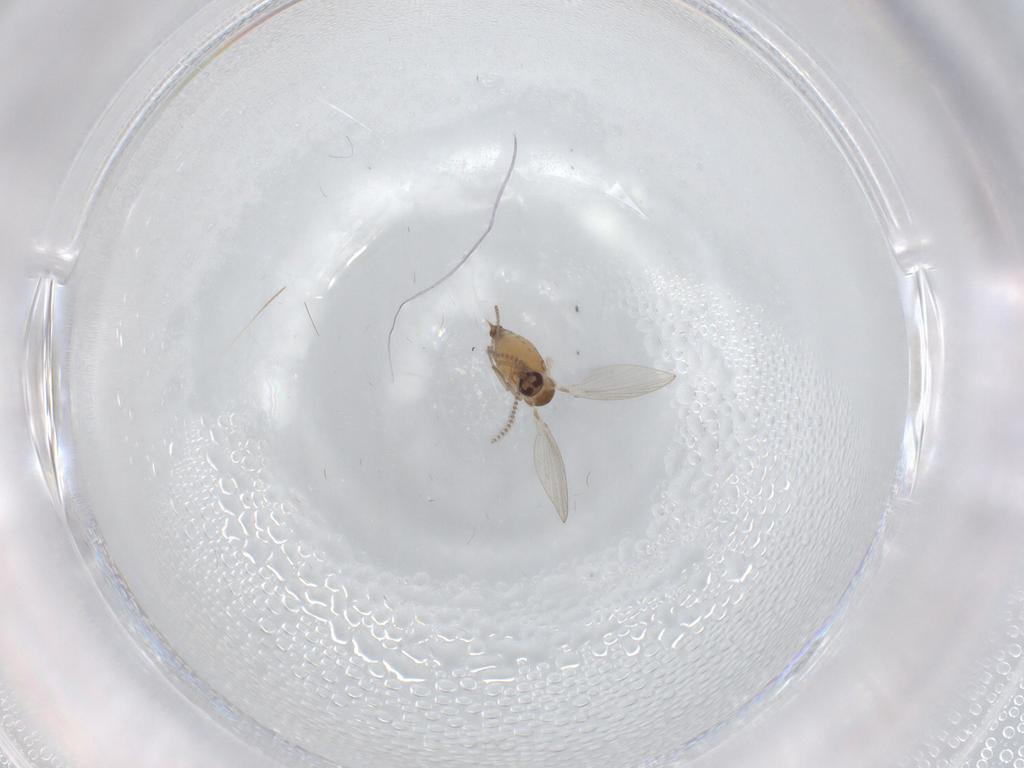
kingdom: Animalia
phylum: Arthropoda
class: Insecta
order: Diptera
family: Psychodidae
